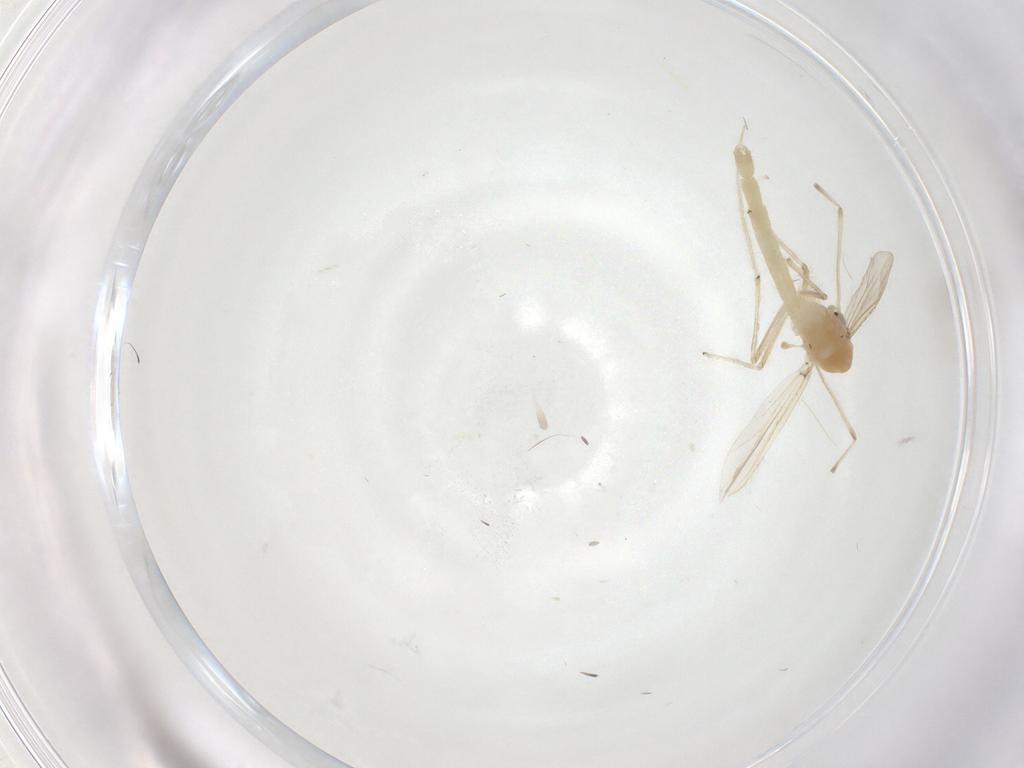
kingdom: Animalia
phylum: Arthropoda
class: Insecta
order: Diptera
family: Chironomidae
